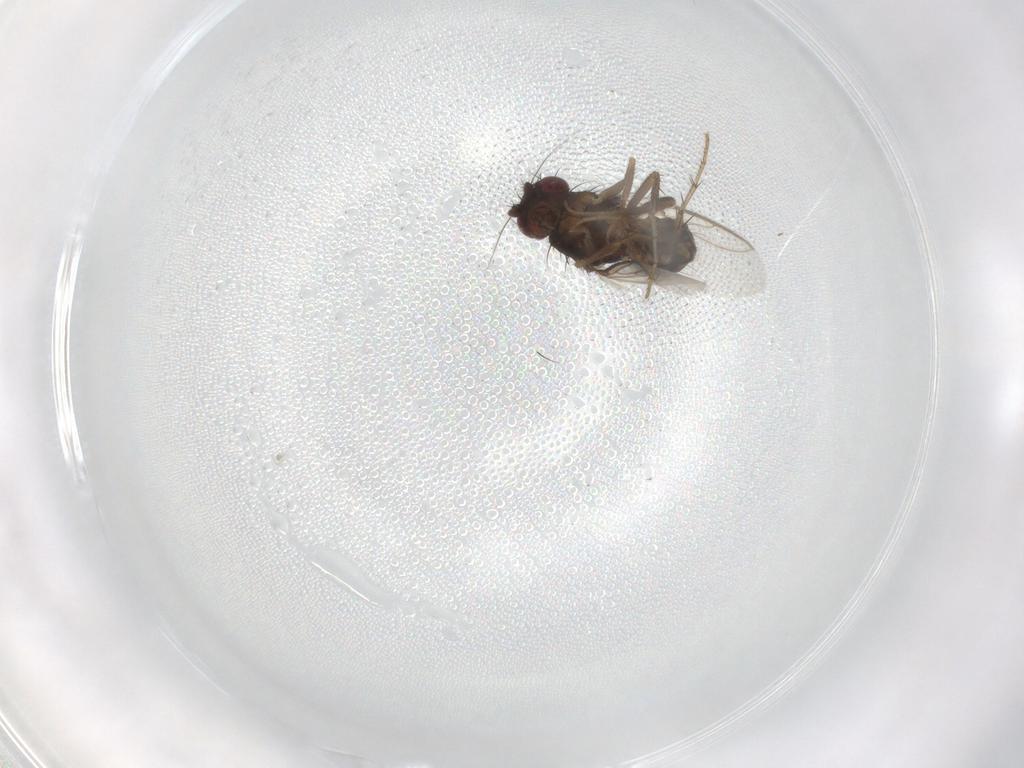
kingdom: Animalia
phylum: Arthropoda
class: Insecta
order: Diptera
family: Sphaeroceridae
